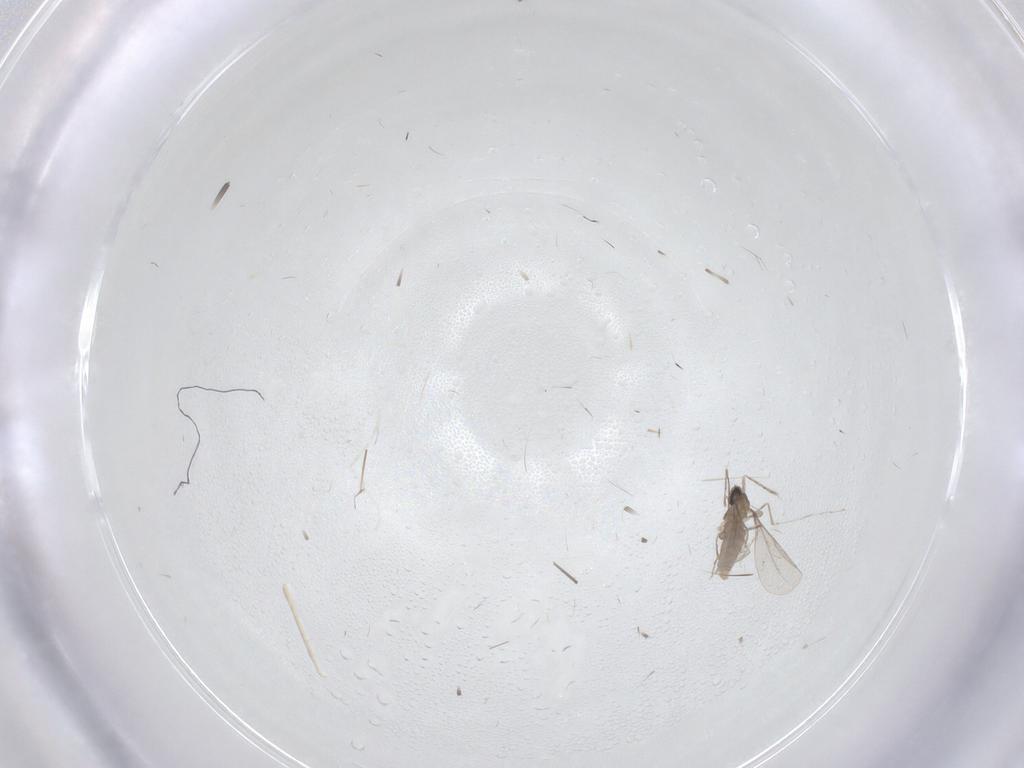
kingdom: Animalia
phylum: Arthropoda
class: Insecta
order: Diptera
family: Cecidomyiidae
